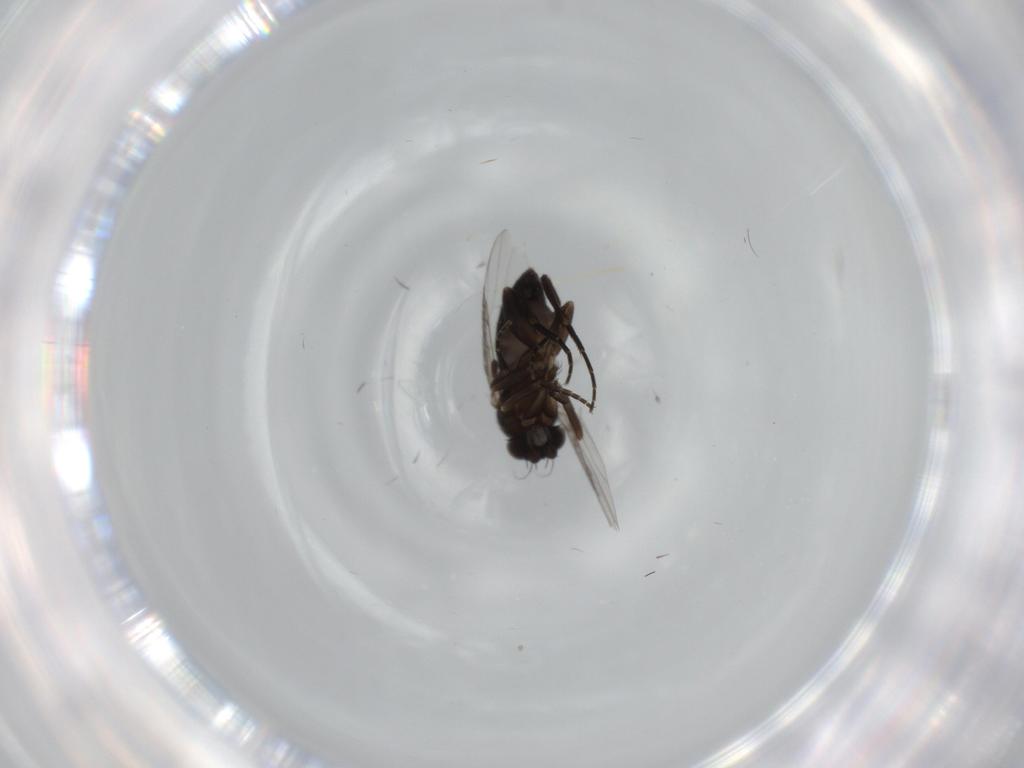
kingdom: Animalia
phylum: Arthropoda
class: Insecta
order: Diptera
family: Phoridae
